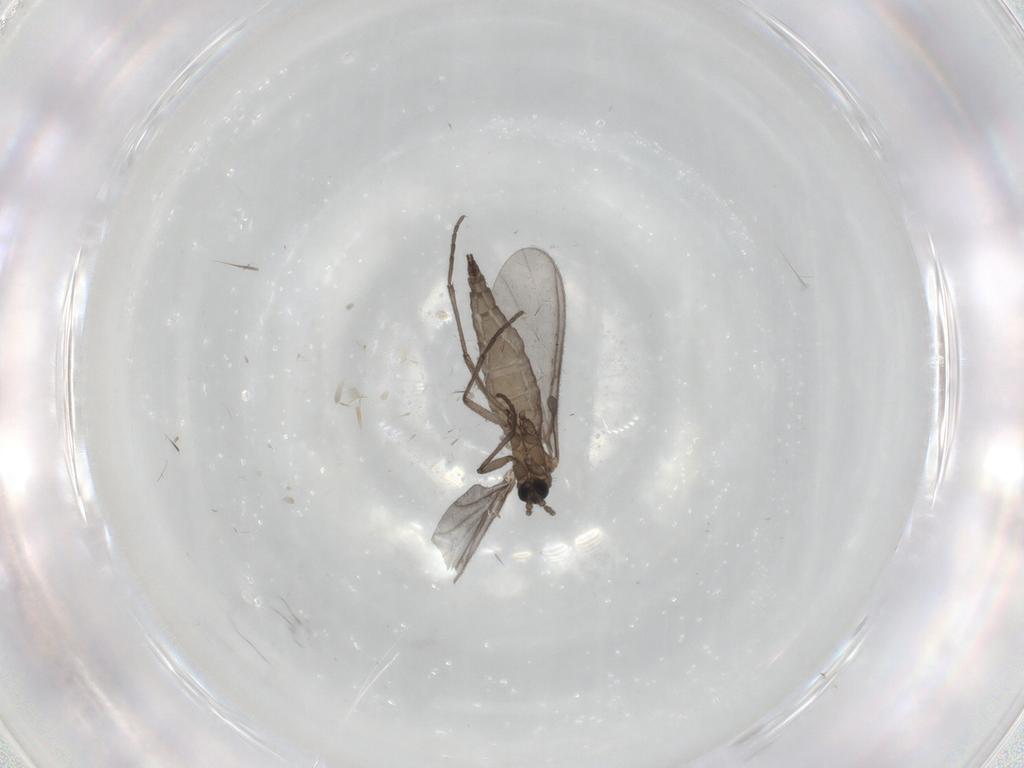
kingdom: Animalia
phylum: Arthropoda
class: Insecta
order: Diptera
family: Sciaridae
